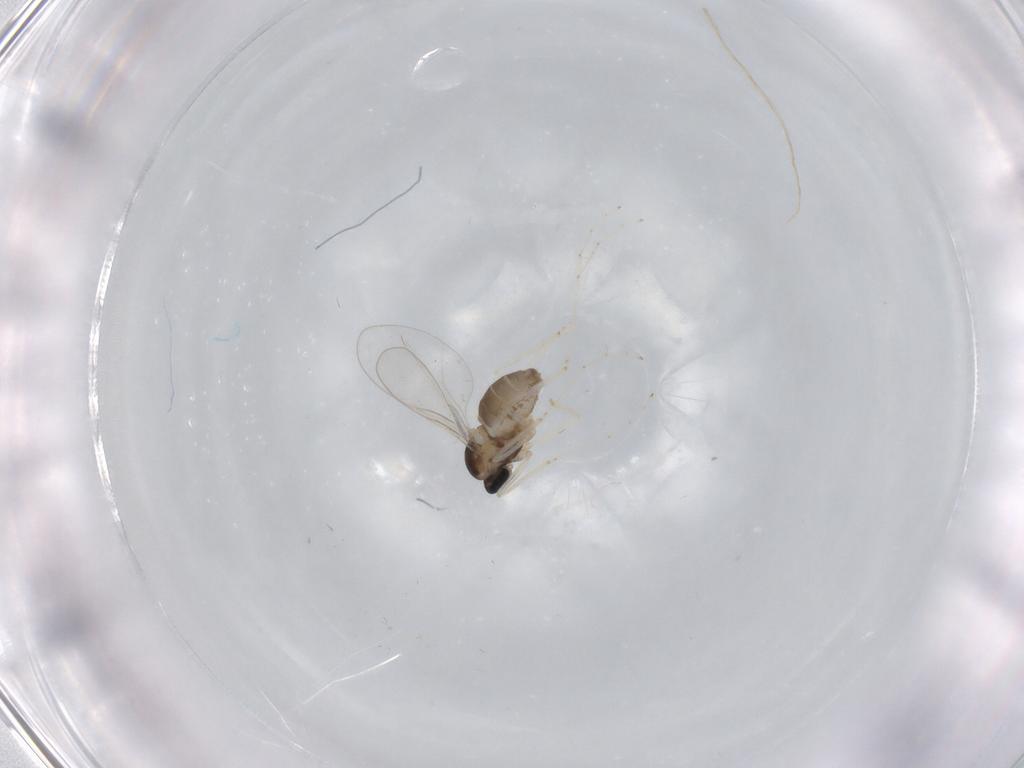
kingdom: Animalia
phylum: Arthropoda
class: Insecta
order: Diptera
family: Cecidomyiidae
